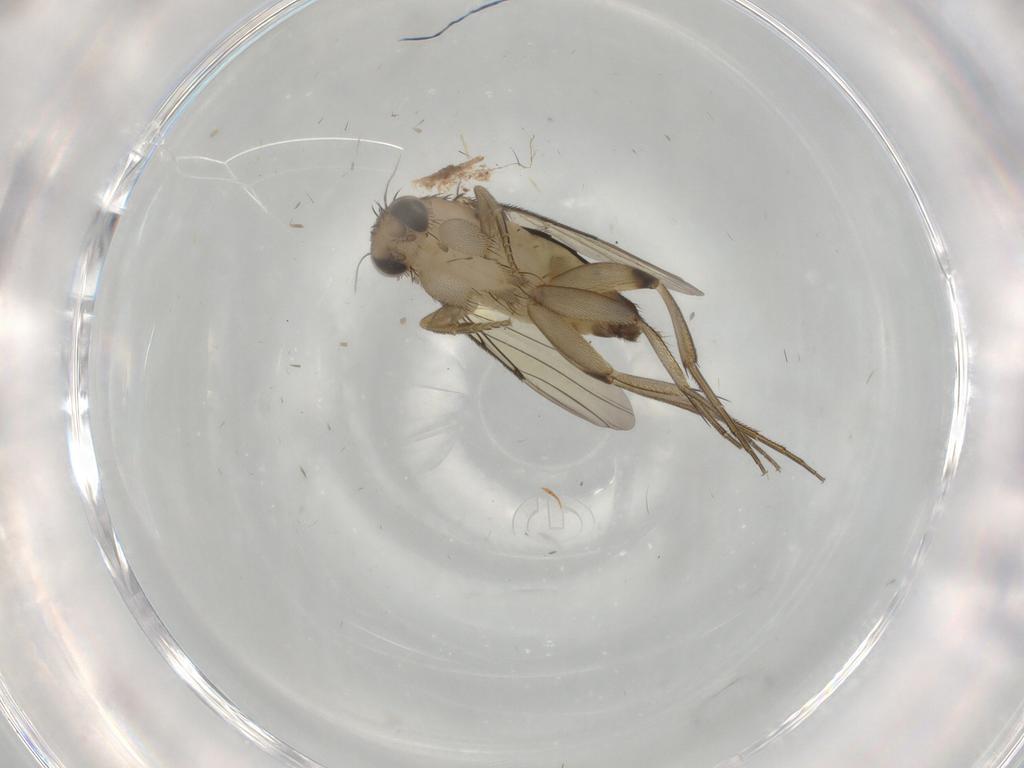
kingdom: Animalia
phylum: Arthropoda
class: Insecta
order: Diptera
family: Phoridae
